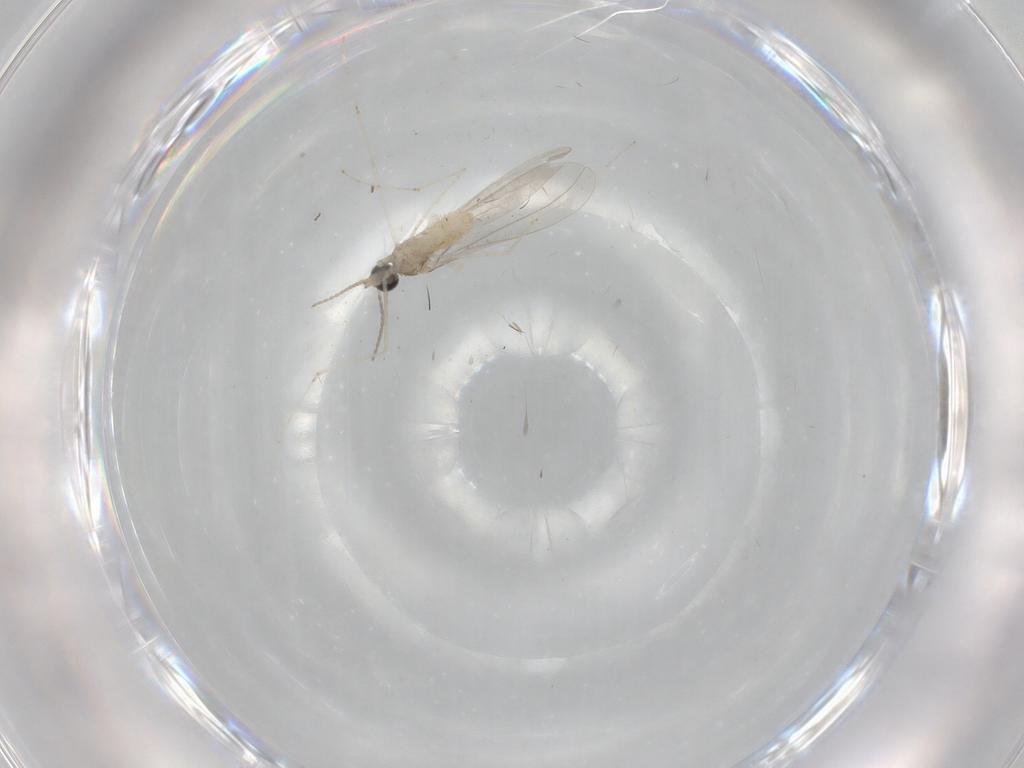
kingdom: Animalia
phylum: Arthropoda
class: Insecta
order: Diptera
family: Cecidomyiidae
